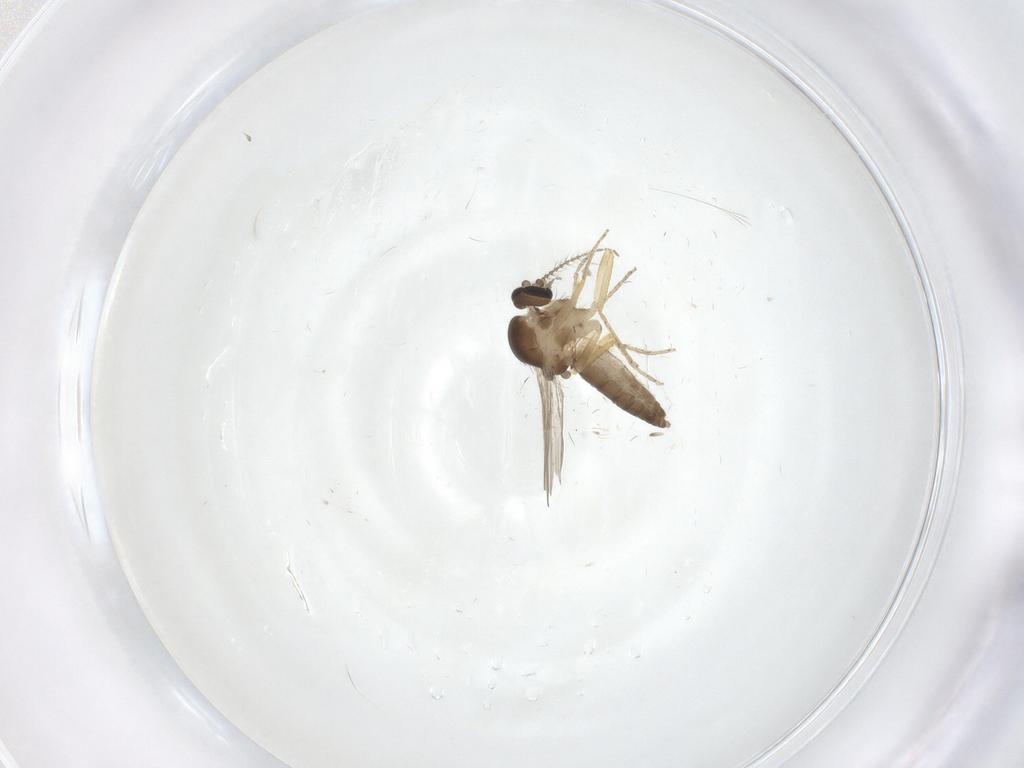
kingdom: Animalia
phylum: Arthropoda
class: Insecta
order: Diptera
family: Ceratopogonidae
